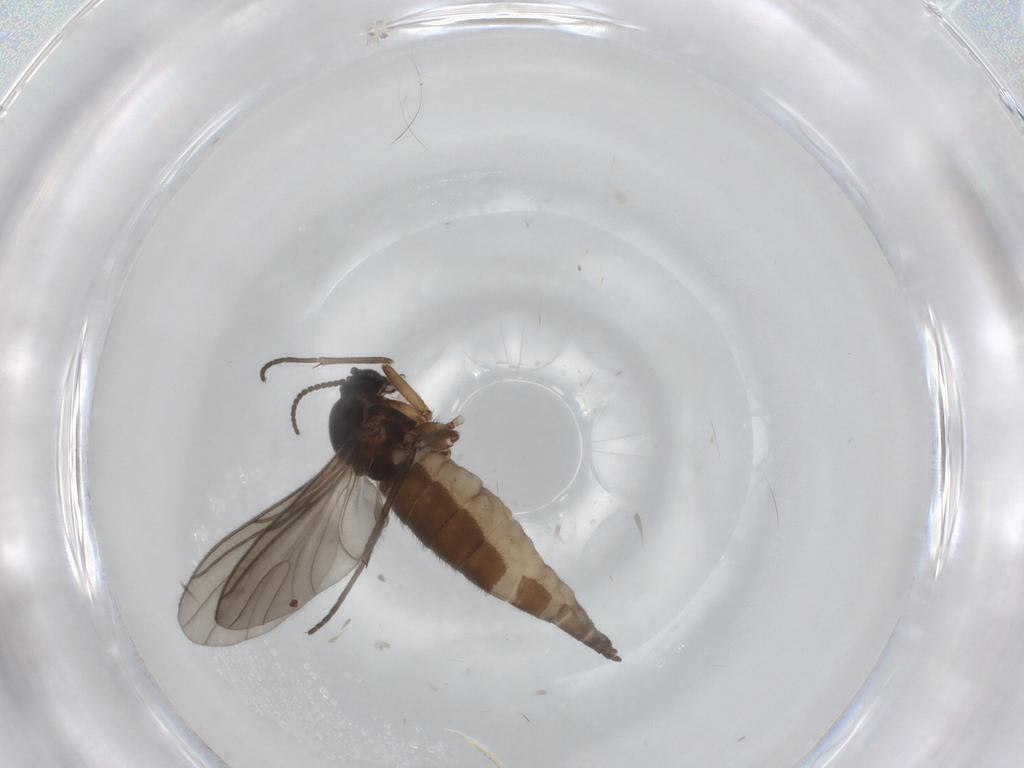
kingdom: Animalia
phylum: Arthropoda
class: Insecta
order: Diptera
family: Sciaridae
